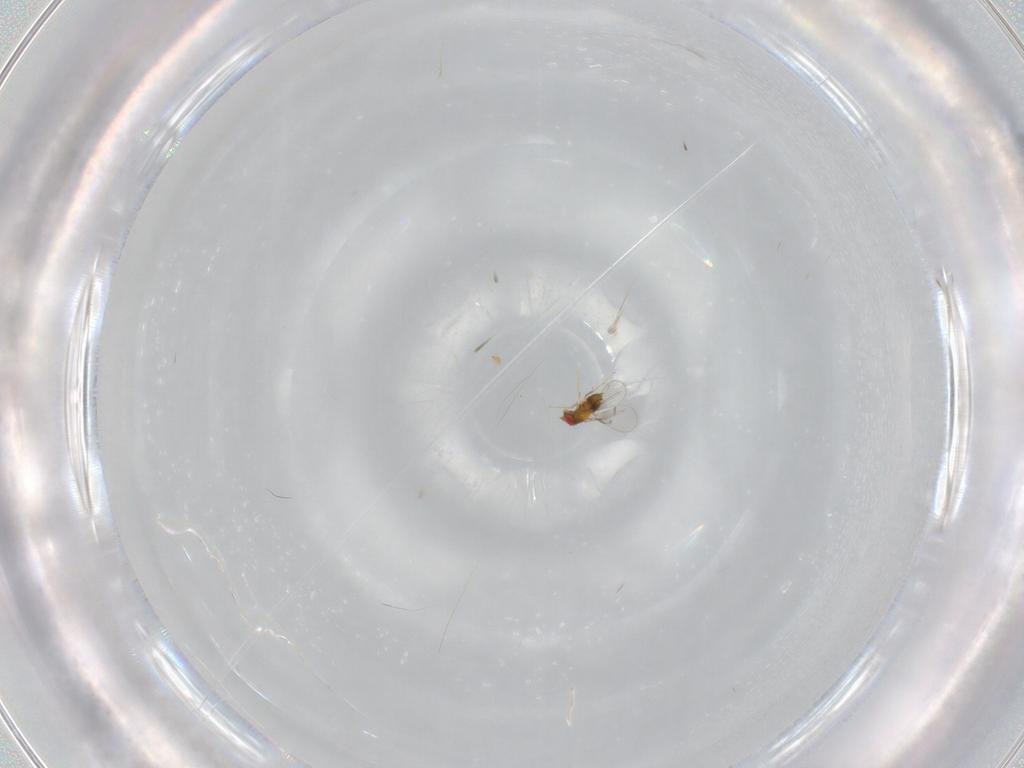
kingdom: Animalia
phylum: Arthropoda
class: Insecta
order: Hymenoptera
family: Trichogrammatidae
